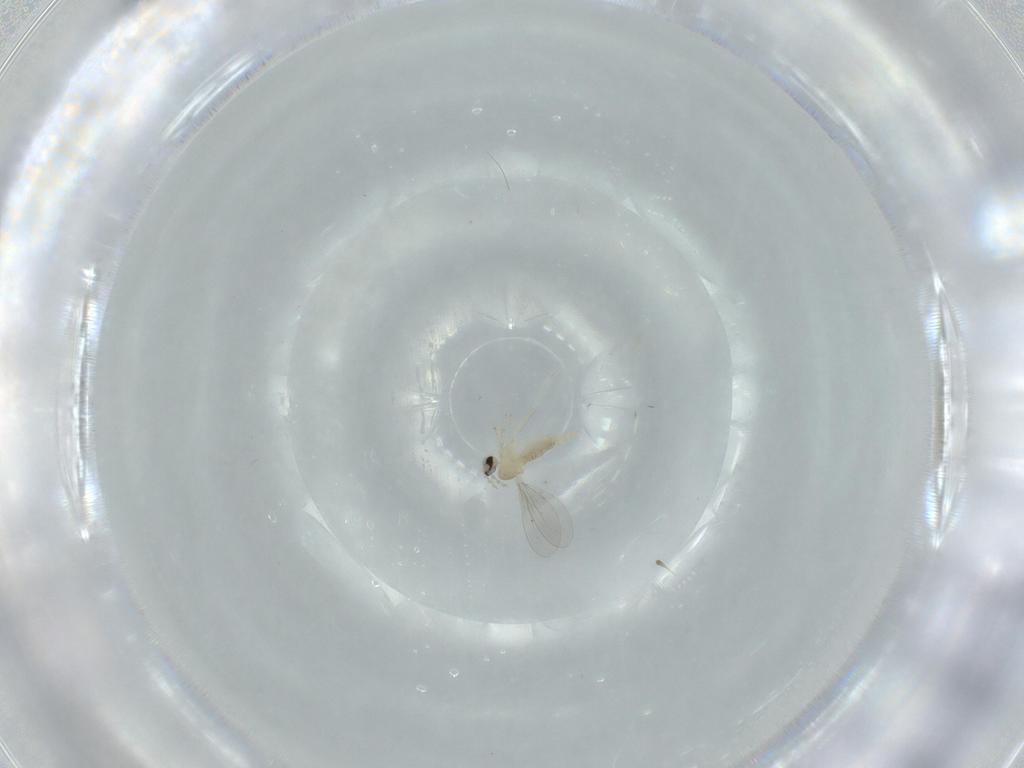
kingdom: Animalia
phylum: Arthropoda
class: Insecta
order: Diptera
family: Cecidomyiidae
